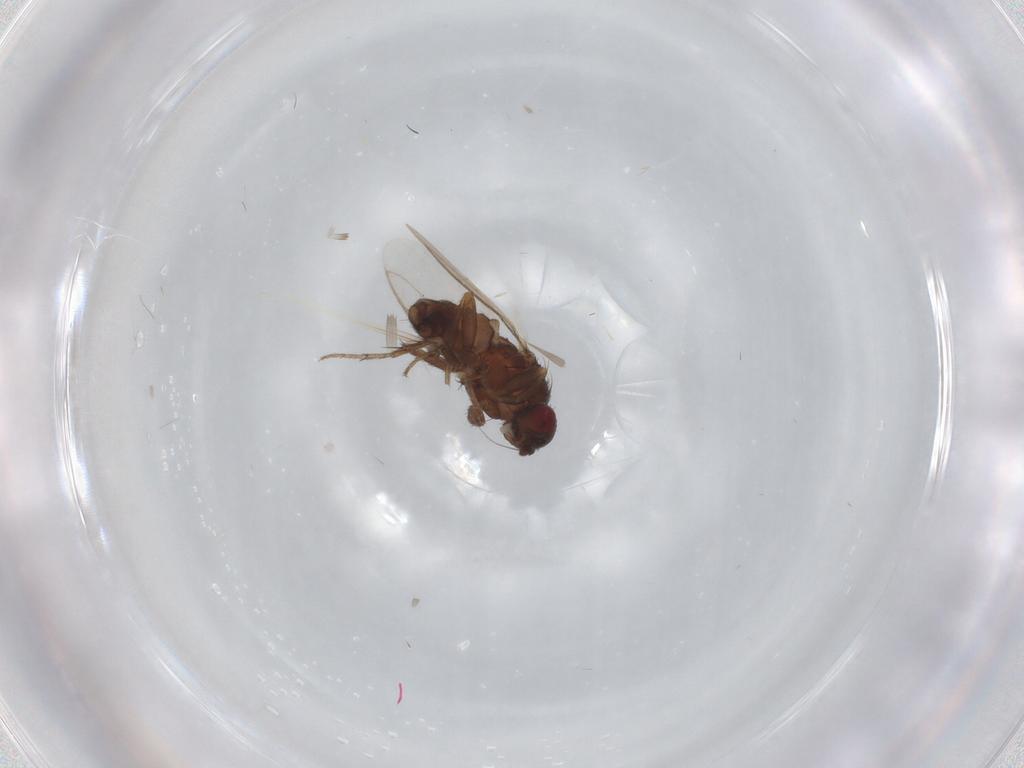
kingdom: Animalia
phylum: Arthropoda
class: Insecta
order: Diptera
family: Sphaeroceridae
